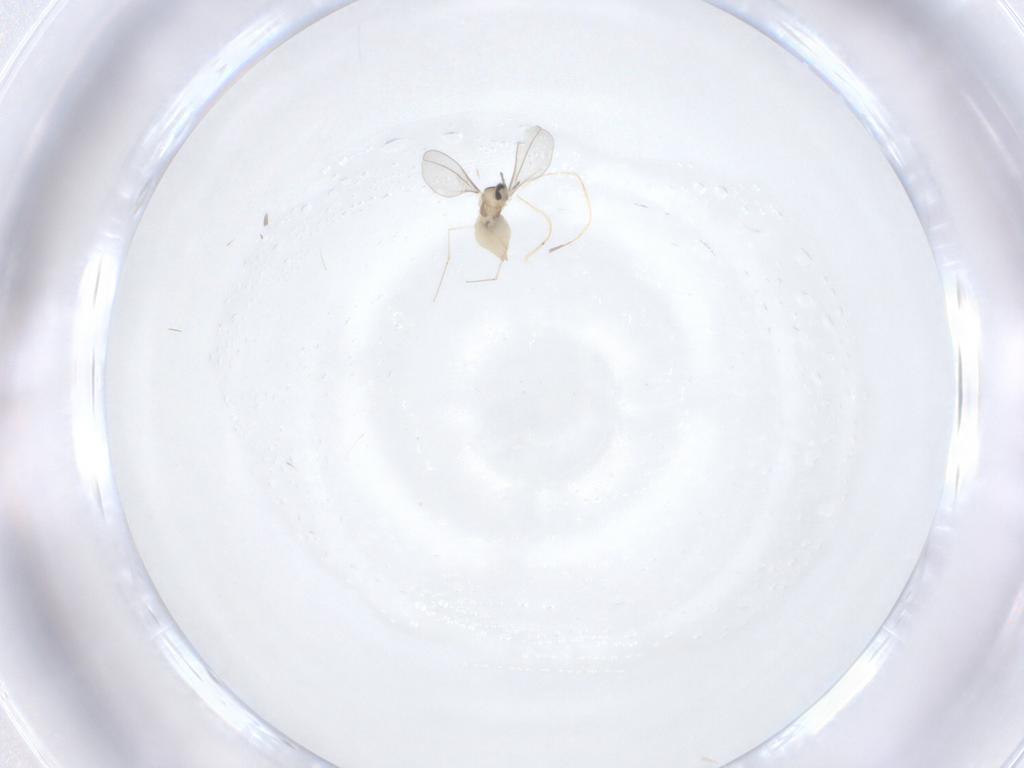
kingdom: Animalia
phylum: Arthropoda
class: Insecta
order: Diptera
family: Cecidomyiidae
